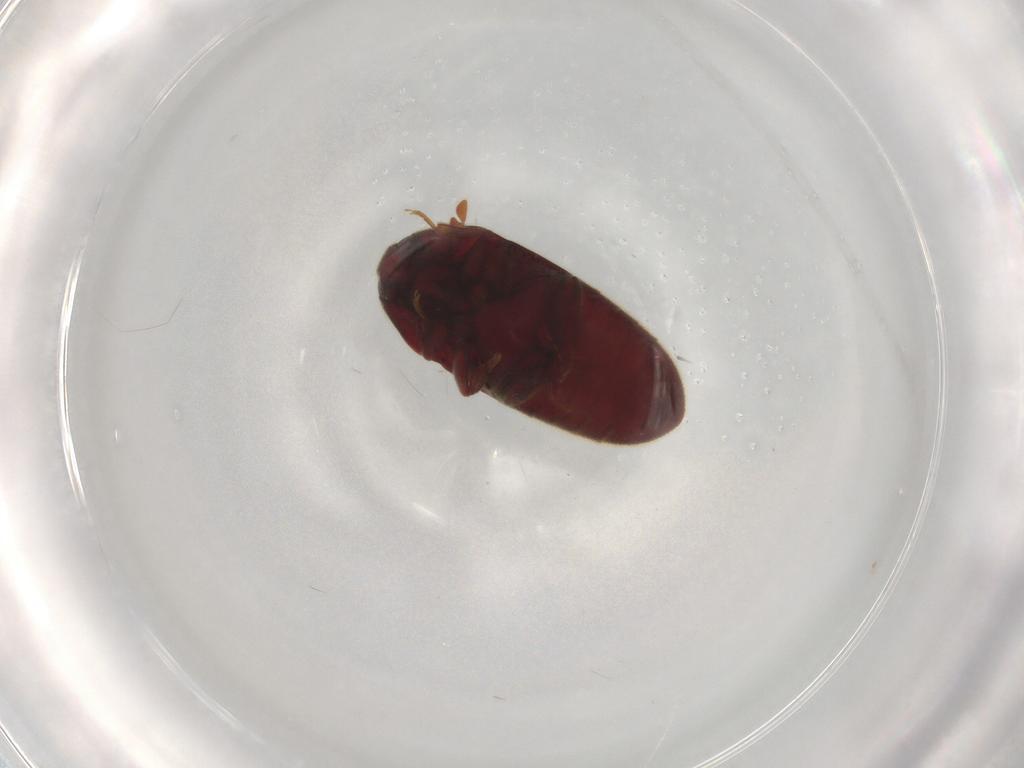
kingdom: Animalia
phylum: Arthropoda
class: Insecta
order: Coleoptera
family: Throscidae
